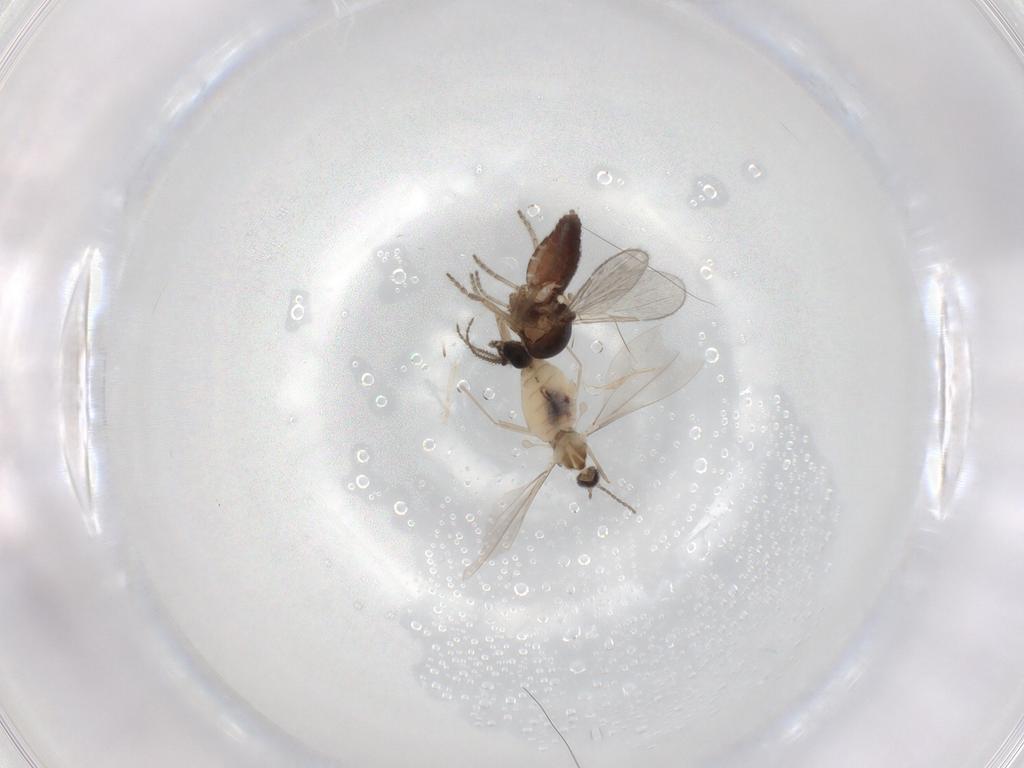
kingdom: Animalia
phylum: Arthropoda
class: Insecta
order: Diptera
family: Ceratopogonidae
